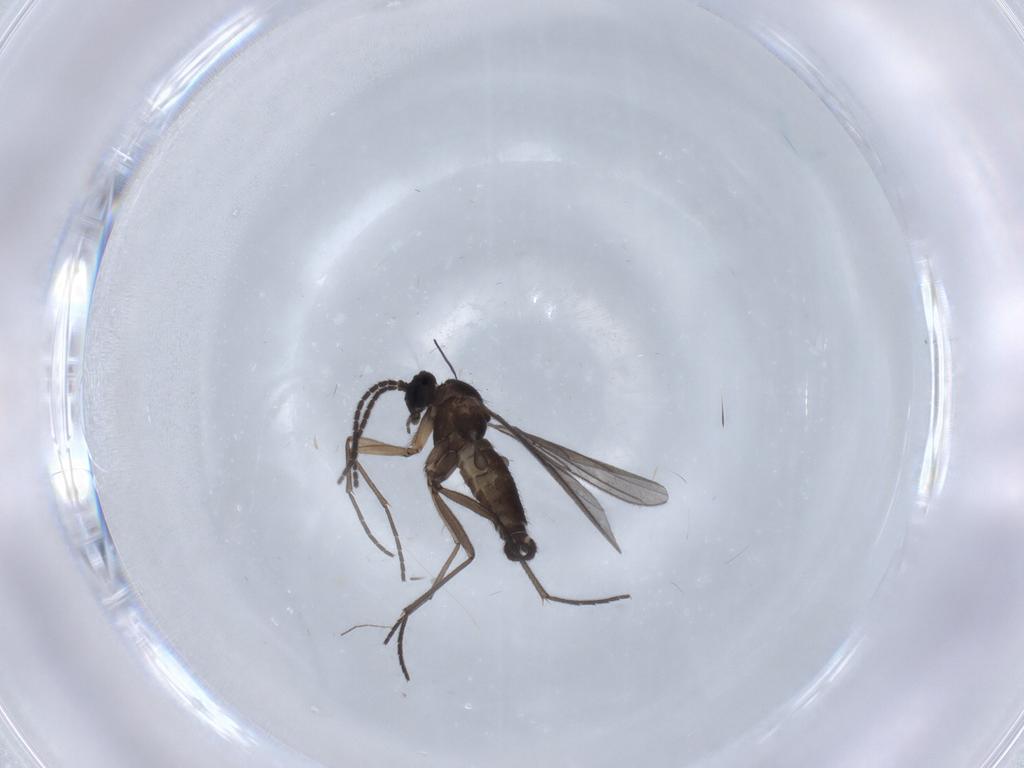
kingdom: Animalia
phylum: Arthropoda
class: Insecta
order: Diptera
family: Sciaridae
